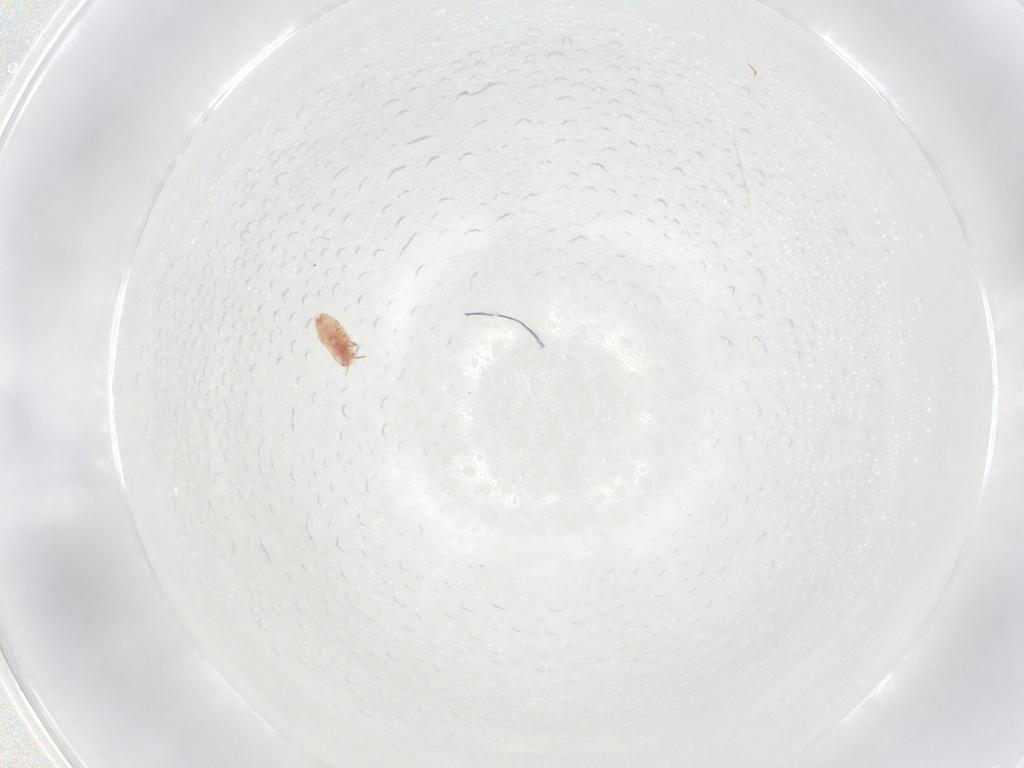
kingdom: Animalia
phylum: Arthropoda
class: Insecta
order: Hemiptera
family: Coccidae
